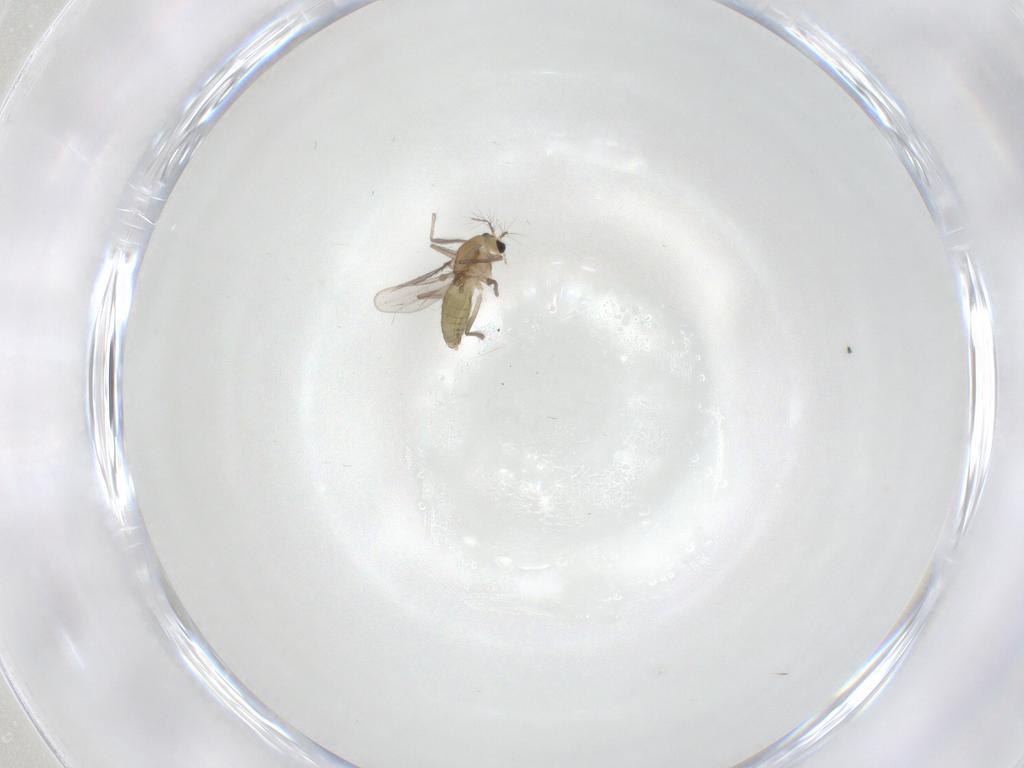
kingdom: Animalia
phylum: Arthropoda
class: Insecta
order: Diptera
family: Chironomidae
